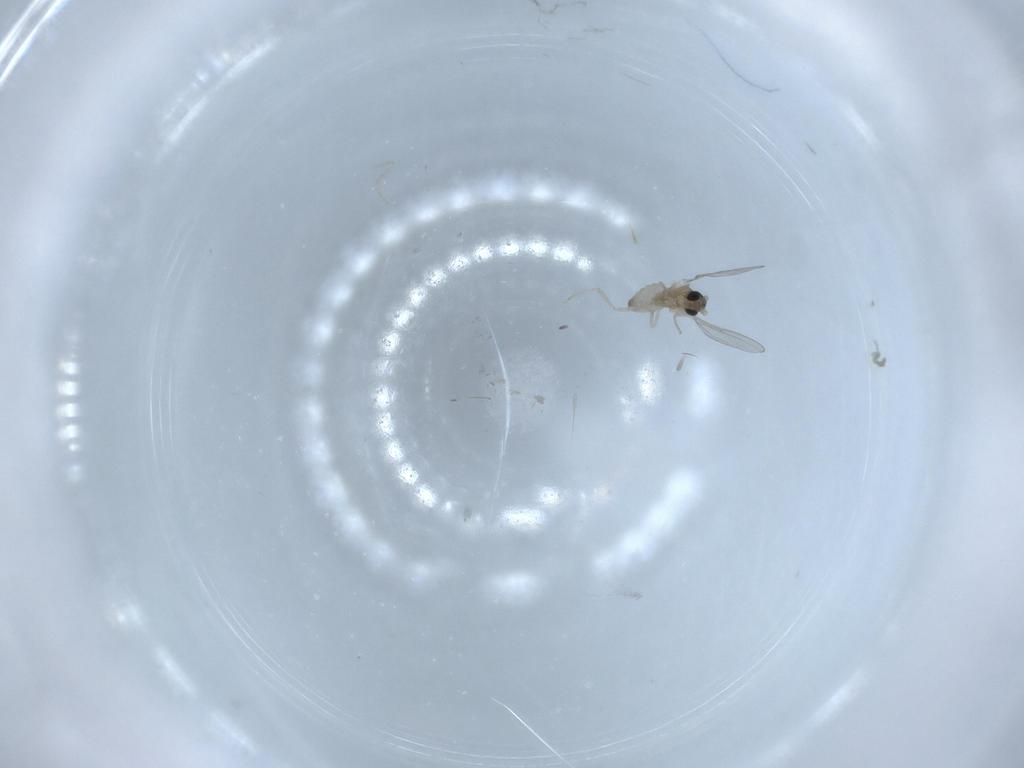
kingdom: Animalia
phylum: Arthropoda
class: Insecta
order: Diptera
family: Cecidomyiidae
